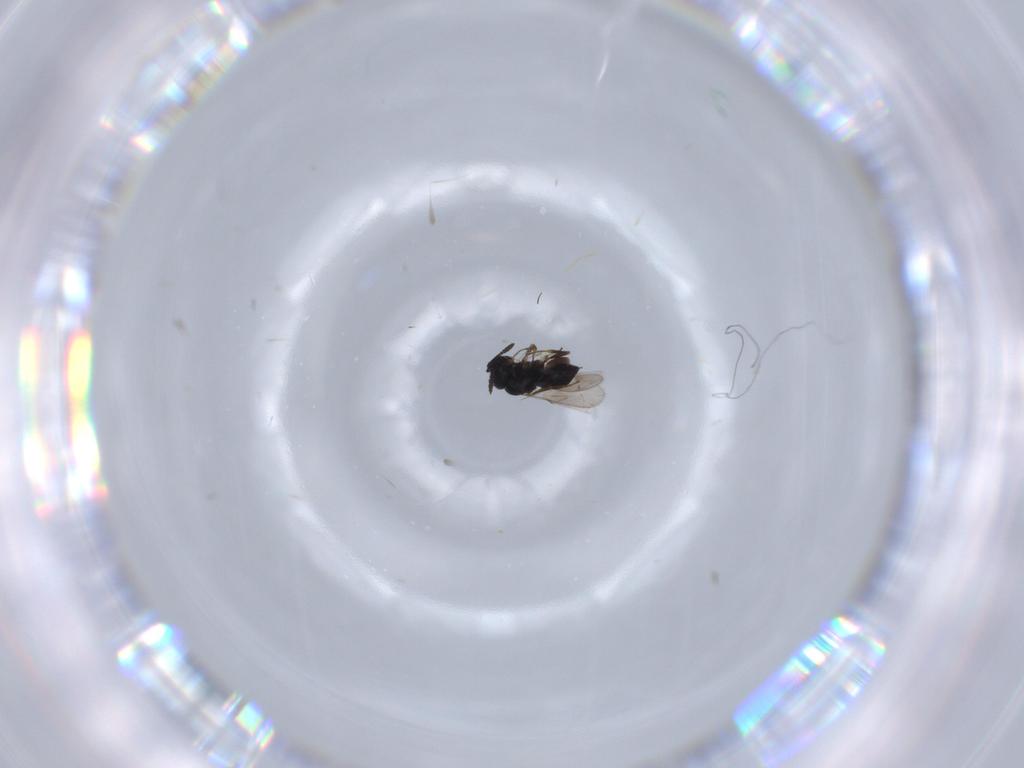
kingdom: Animalia
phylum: Arthropoda
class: Insecta
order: Hymenoptera
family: Scelionidae
